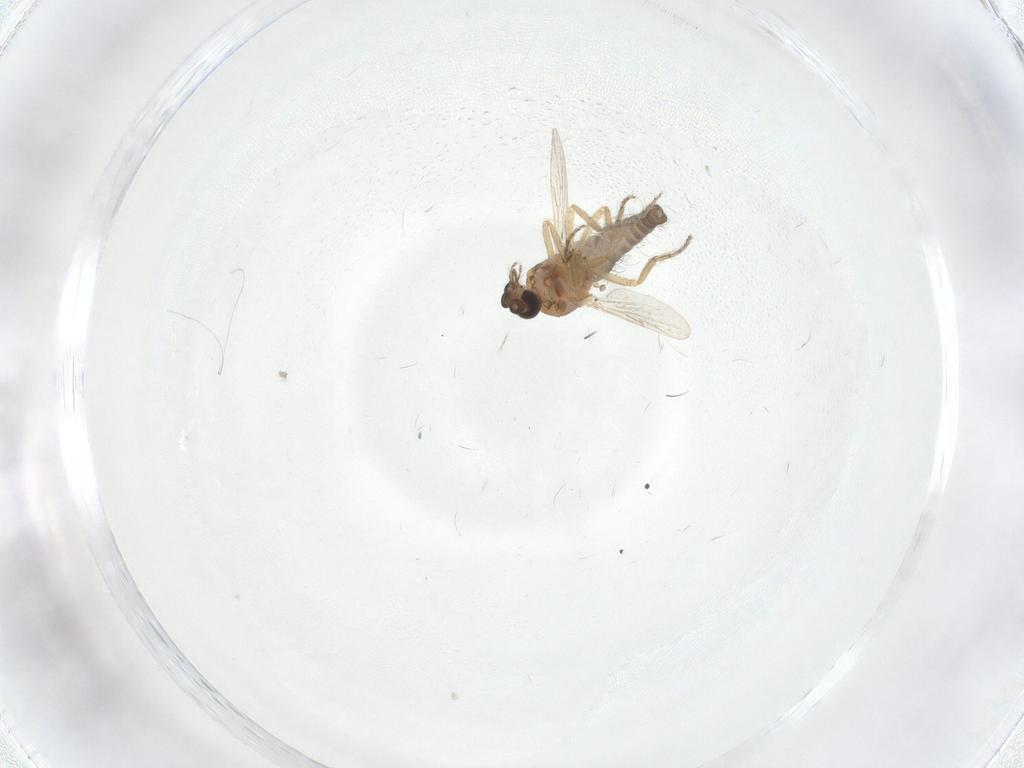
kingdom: Animalia
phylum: Arthropoda
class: Insecta
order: Diptera
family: Ceratopogonidae
